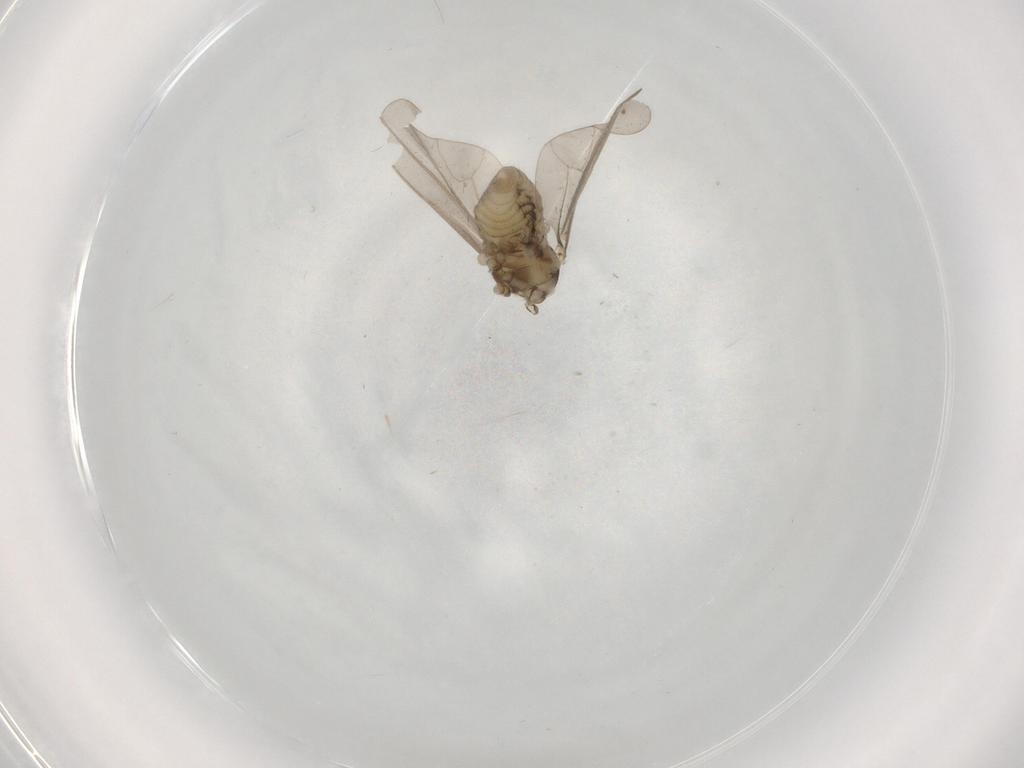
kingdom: Animalia
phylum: Arthropoda
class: Insecta
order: Diptera
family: Cecidomyiidae
